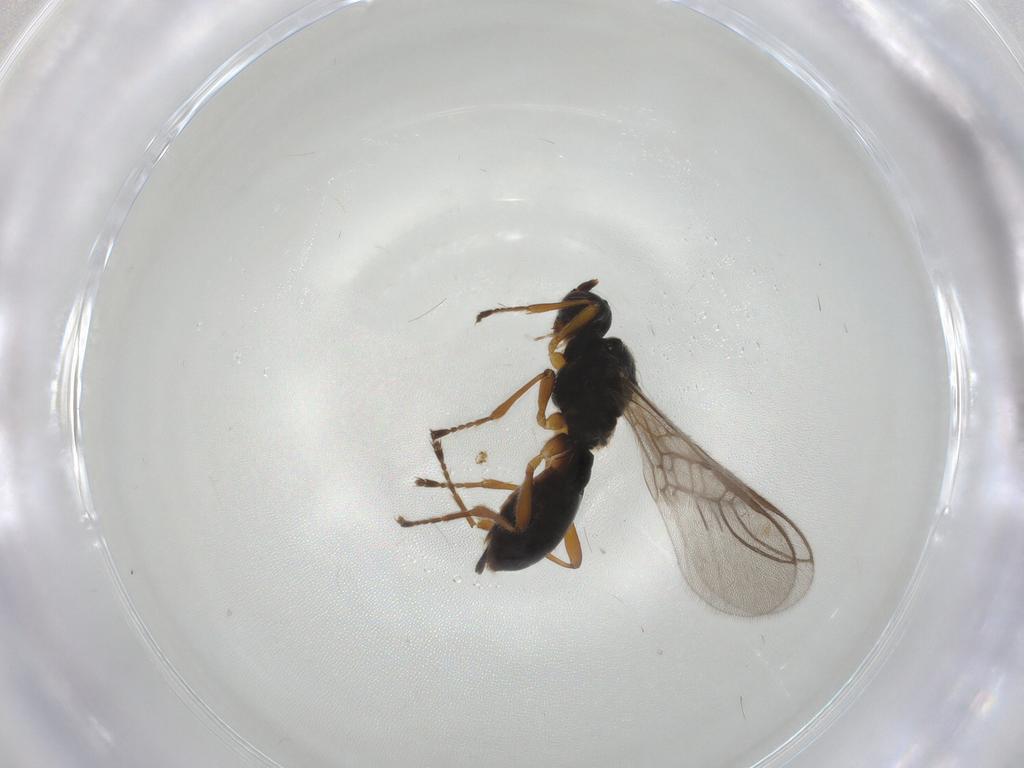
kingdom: Animalia
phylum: Arthropoda
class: Insecta
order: Hymenoptera
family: Braconidae
